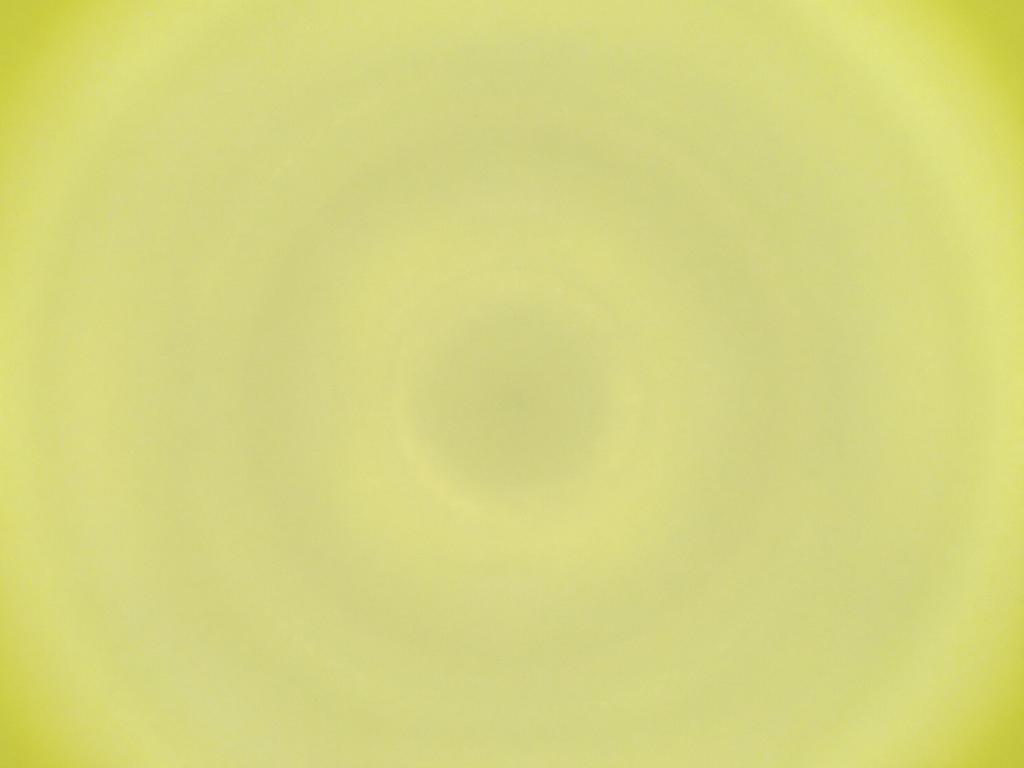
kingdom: Animalia
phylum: Arthropoda
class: Insecta
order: Diptera
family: Cecidomyiidae
